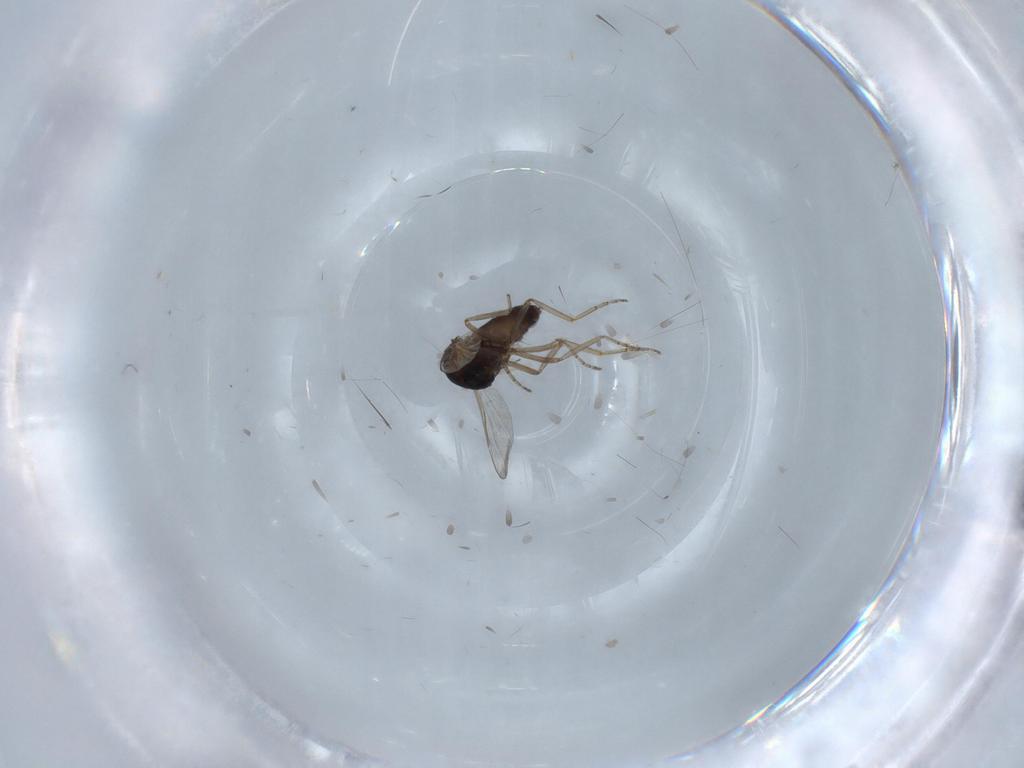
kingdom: Animalia
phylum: Arthropoda
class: Insecta
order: Diptera
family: Ceratopogonidae
